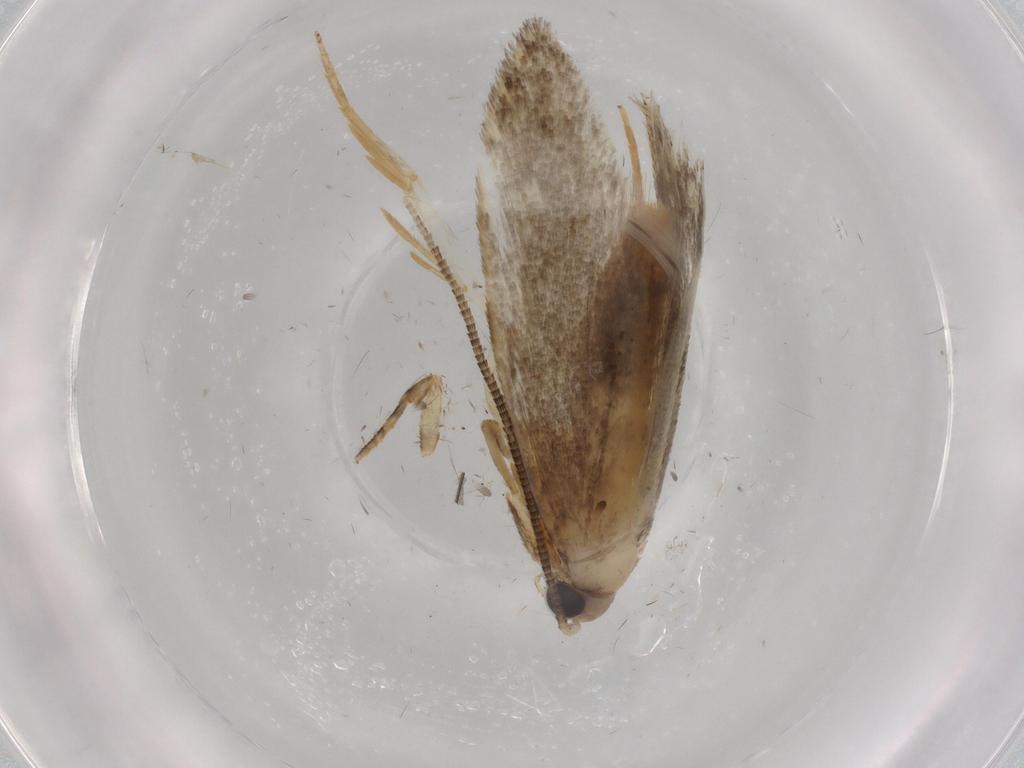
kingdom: Animalia
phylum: Arthropoda
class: Insecta
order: Lepidoptera
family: Tineidae
